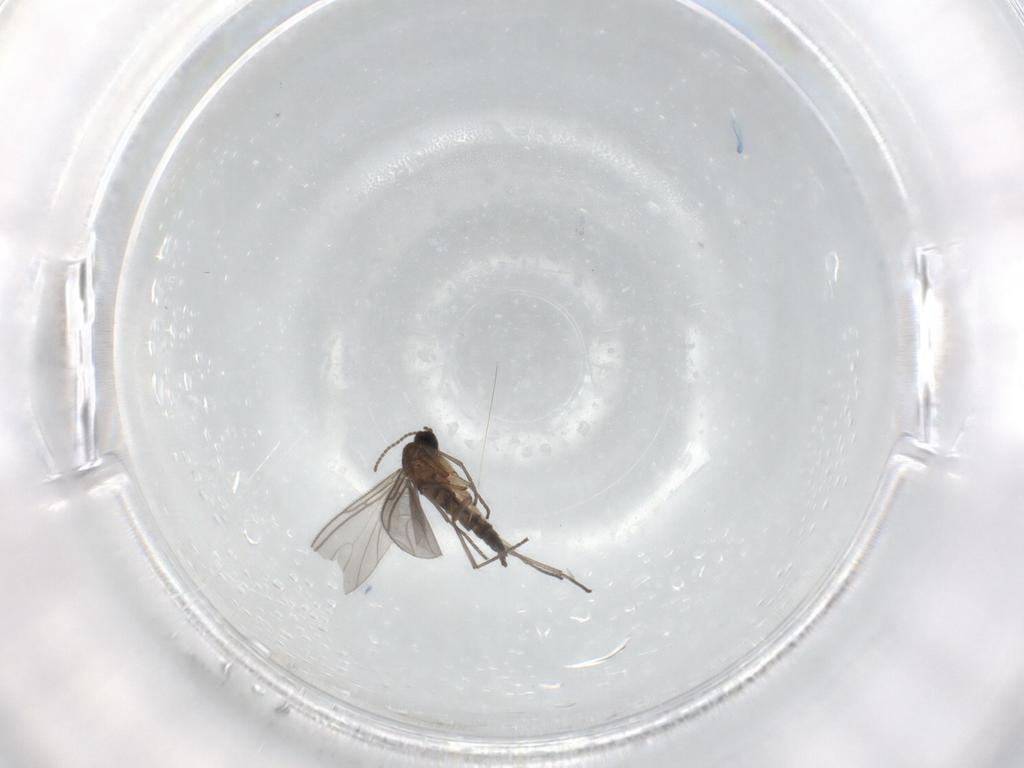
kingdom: Animalia
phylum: Arthropoda
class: Insecta
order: Diptera
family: Sciaridae
